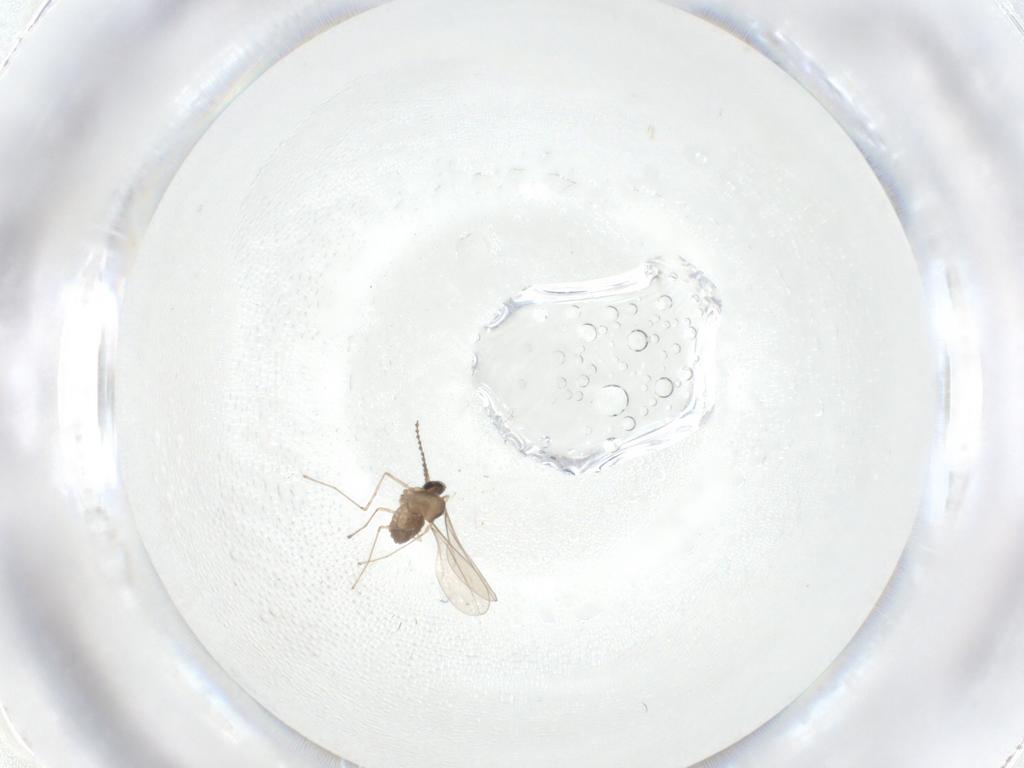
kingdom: Animalia
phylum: Arthropoda
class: Insecta
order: Diptera
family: Cecidomyiidae
